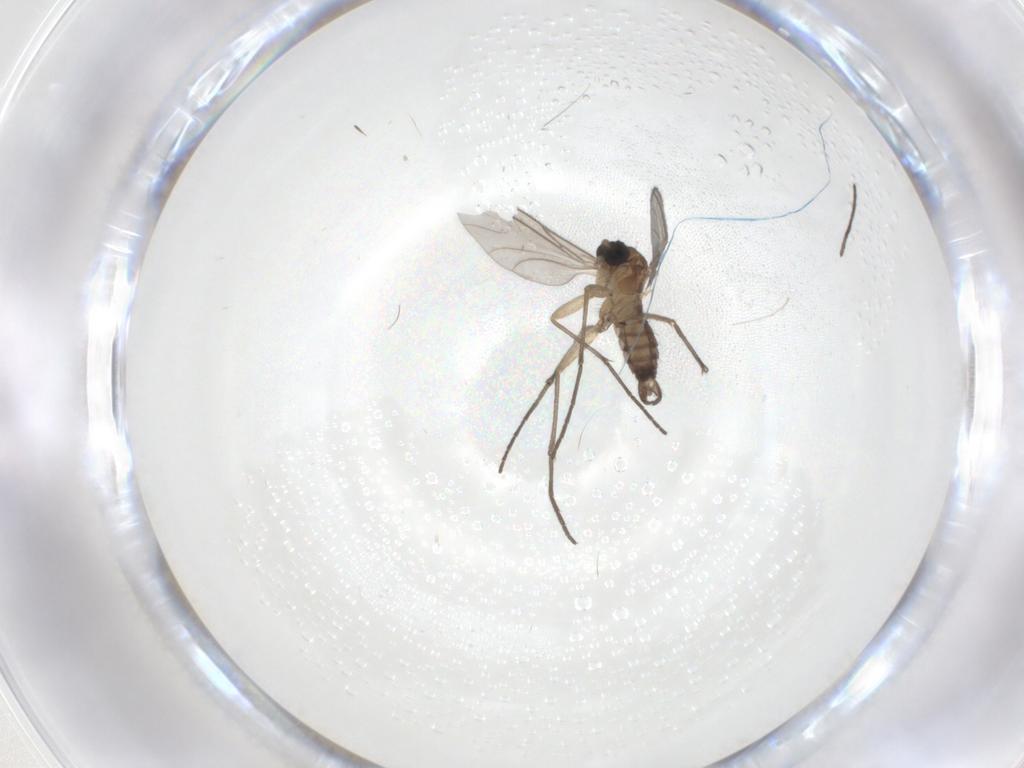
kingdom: Animalia
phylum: Arthropoda
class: Insecta
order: Diptera
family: Sciaridae
